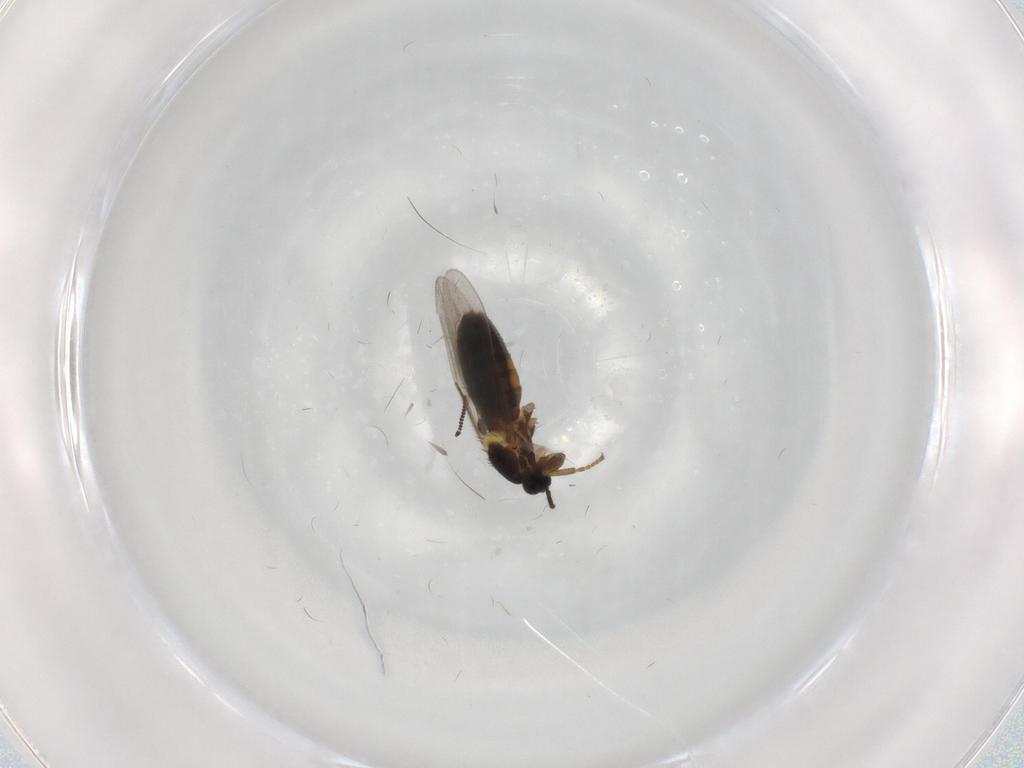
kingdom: Animalia
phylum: Arthropoda
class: Insecta
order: Diptera
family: Scatopsidae
